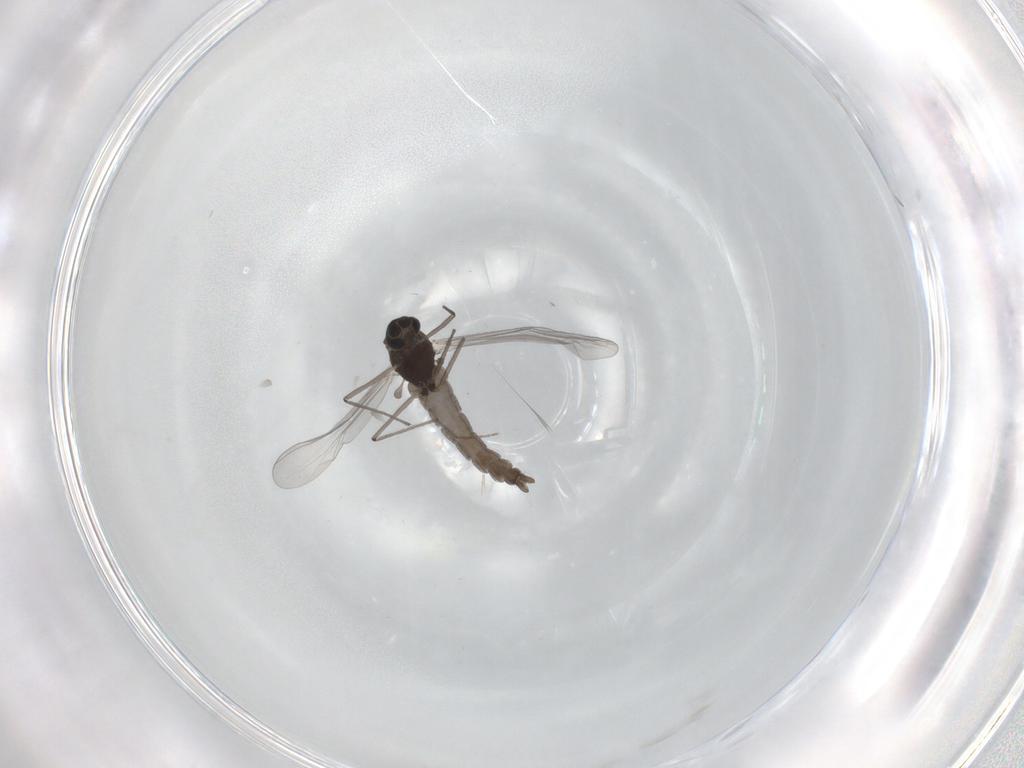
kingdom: Animalia
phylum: Arthropoda
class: Insecta
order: Diptera
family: Chironomidae
